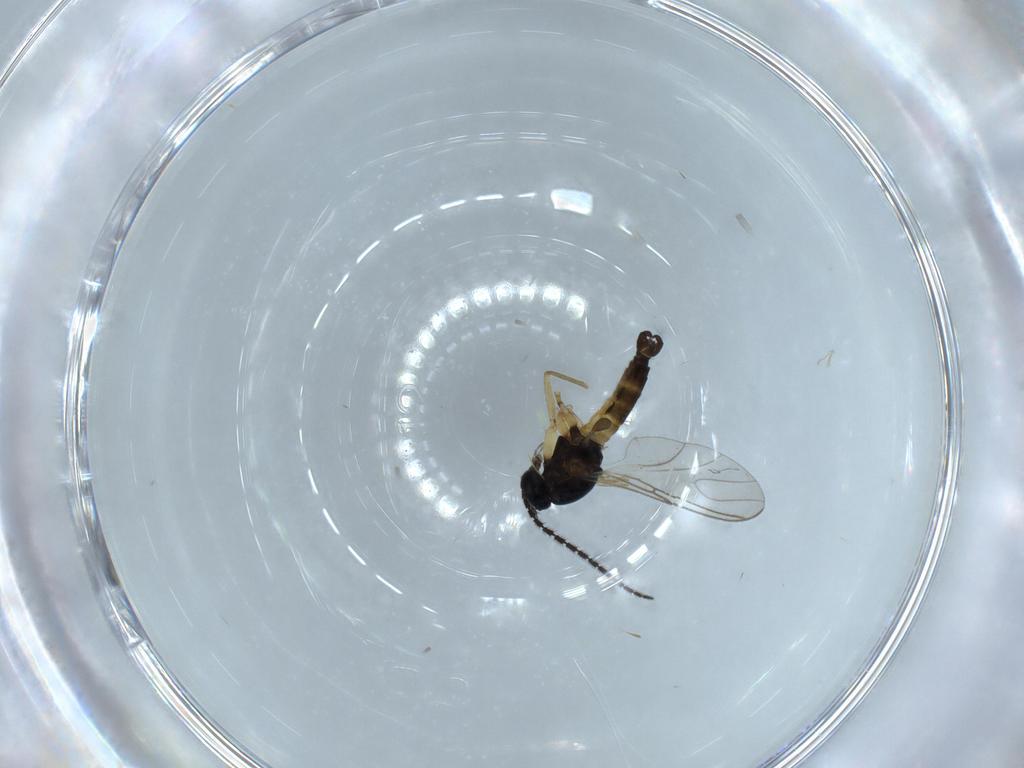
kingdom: Animalia
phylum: Arthropoda
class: Insecta
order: Diptera
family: Sciaridae
